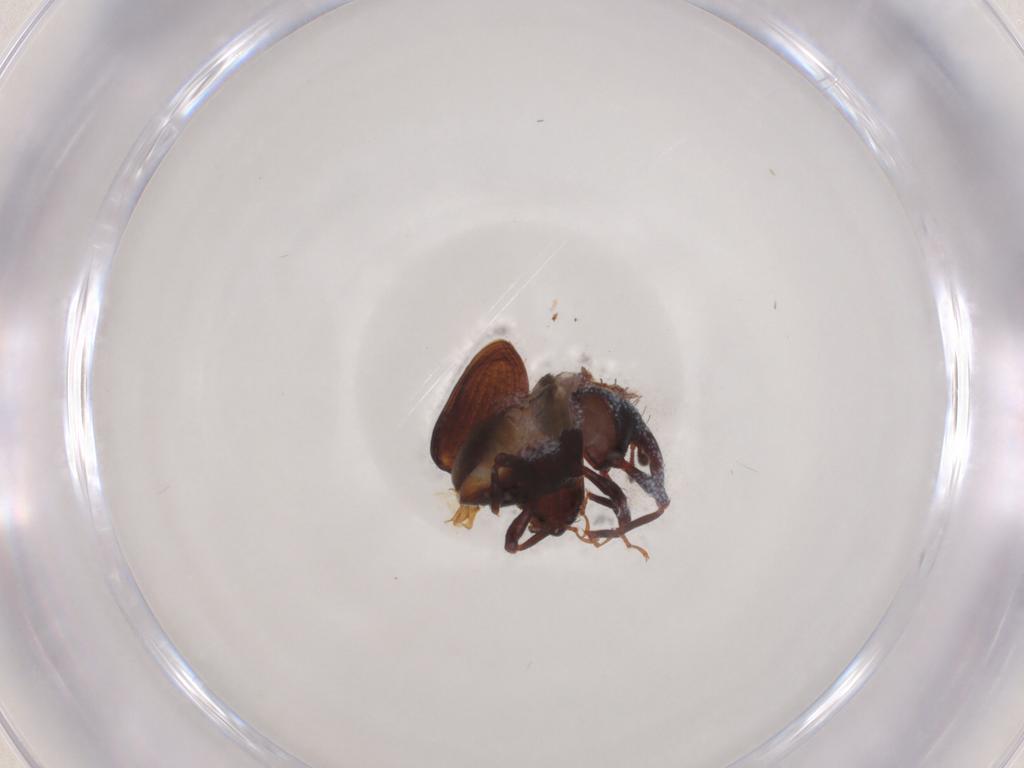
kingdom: Animalia
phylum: Arthropoda
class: Insecta
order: Coleoptera
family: Curculionidae
